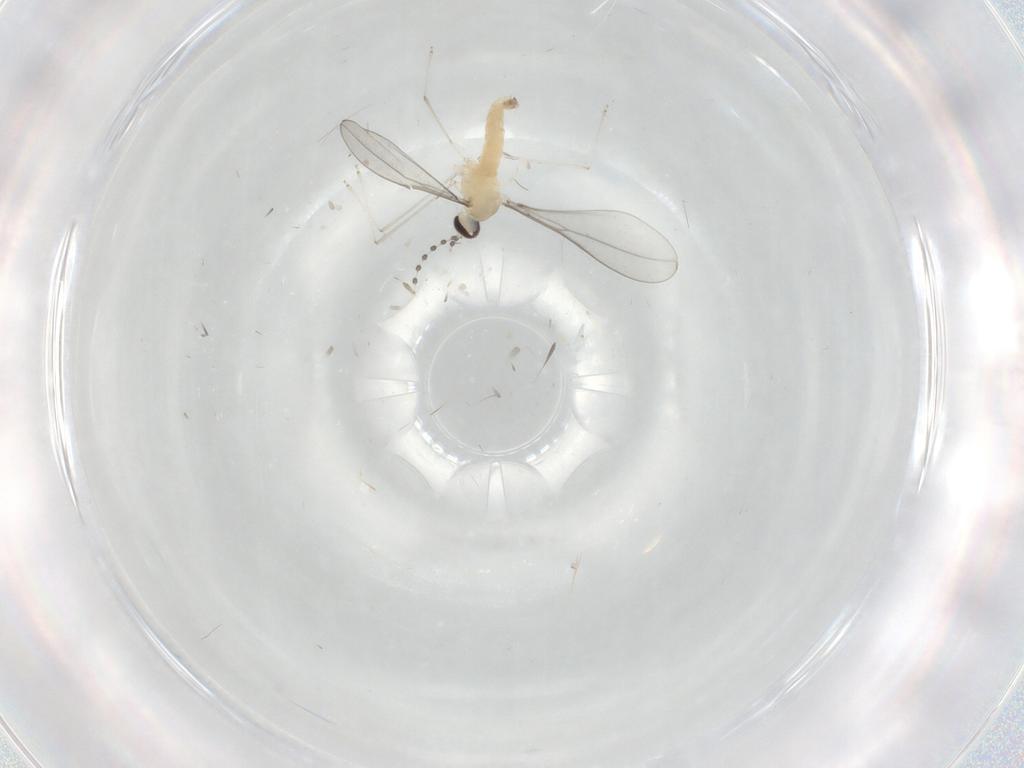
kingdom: Animalia
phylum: Arthropoda
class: Insecta
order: Diptera
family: Cecidomyiidae
